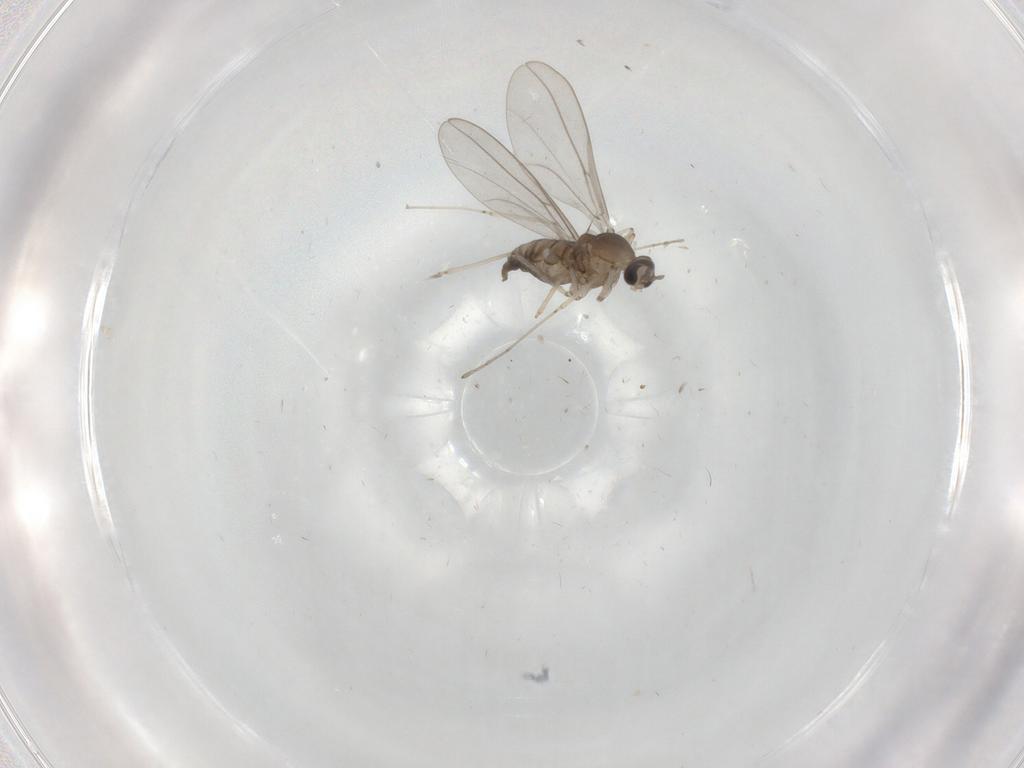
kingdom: Animalia
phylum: Arthropoda
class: Insecta
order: Diptera
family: Cecidomyiidae
